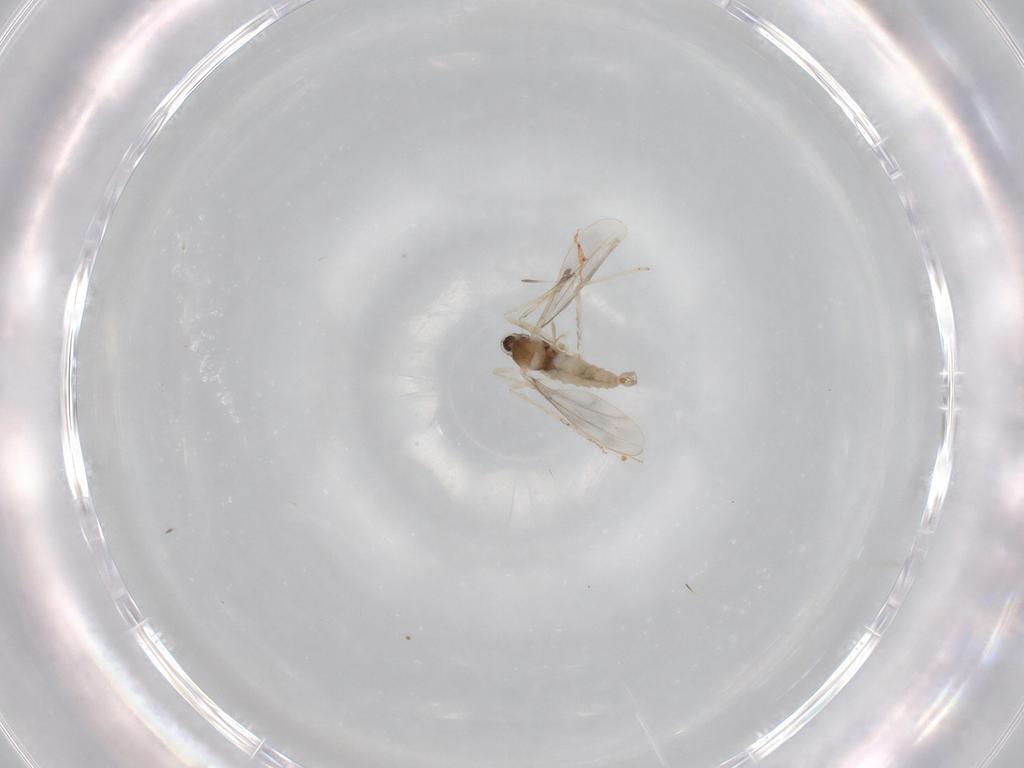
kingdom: Animalia
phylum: Arthropoda
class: Insecta
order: Diptera
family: Cecidomyiidae
